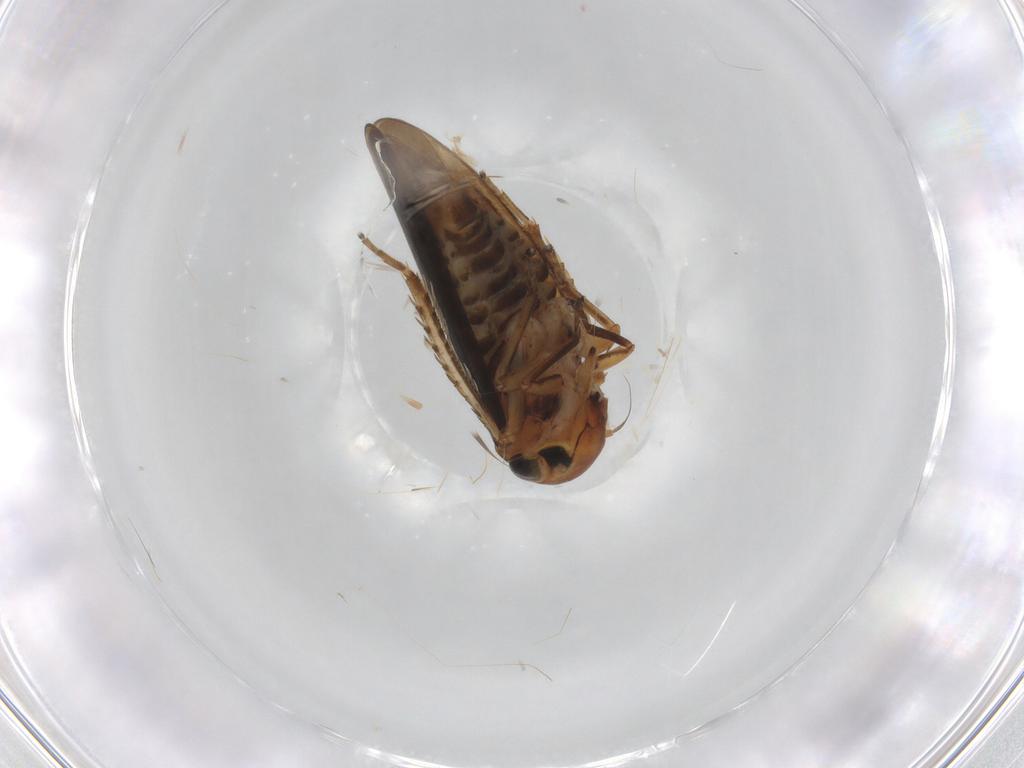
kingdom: Animalia
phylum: Arthropoda
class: Insecta
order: Hemiptera
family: Cicadellidae
